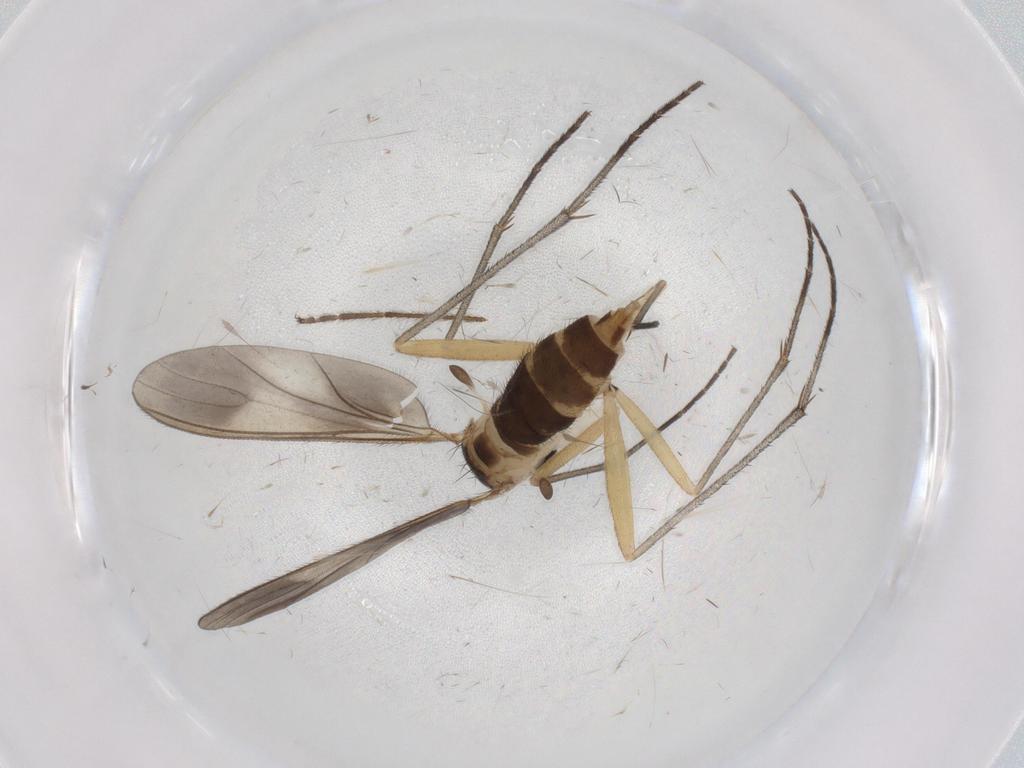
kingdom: Animalia
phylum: Arthropoda
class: Insecta
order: Diptera
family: Sciaridae
